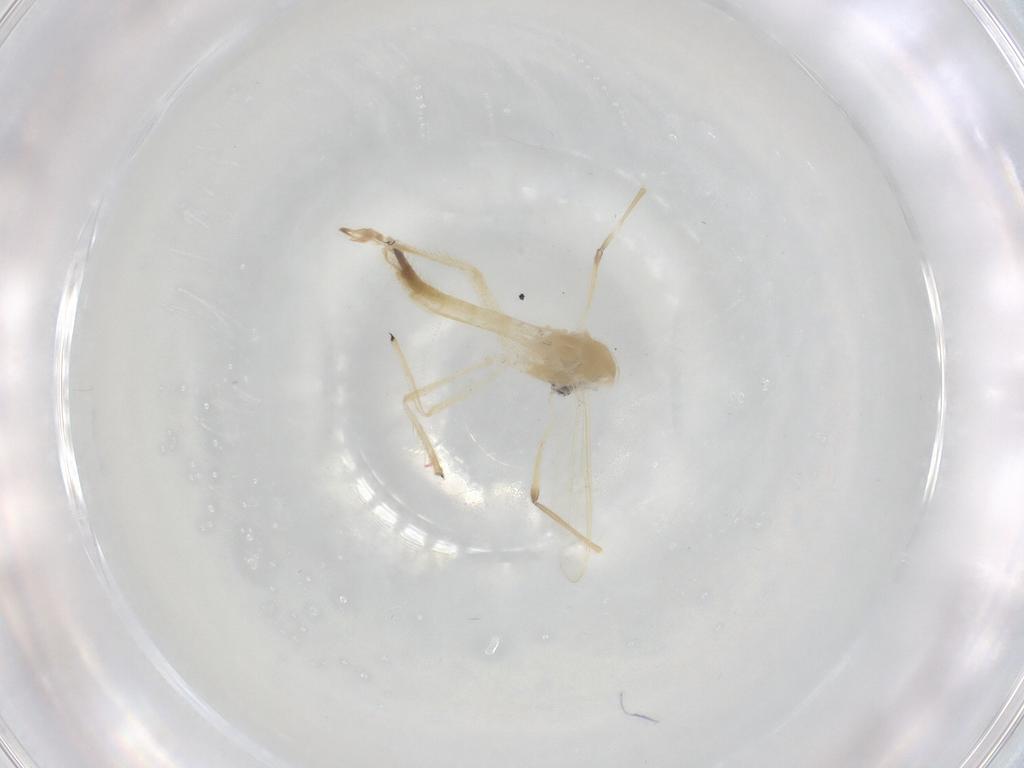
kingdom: Animalia
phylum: Arthropoda
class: Insecta
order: Diptera
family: Chironomidae
